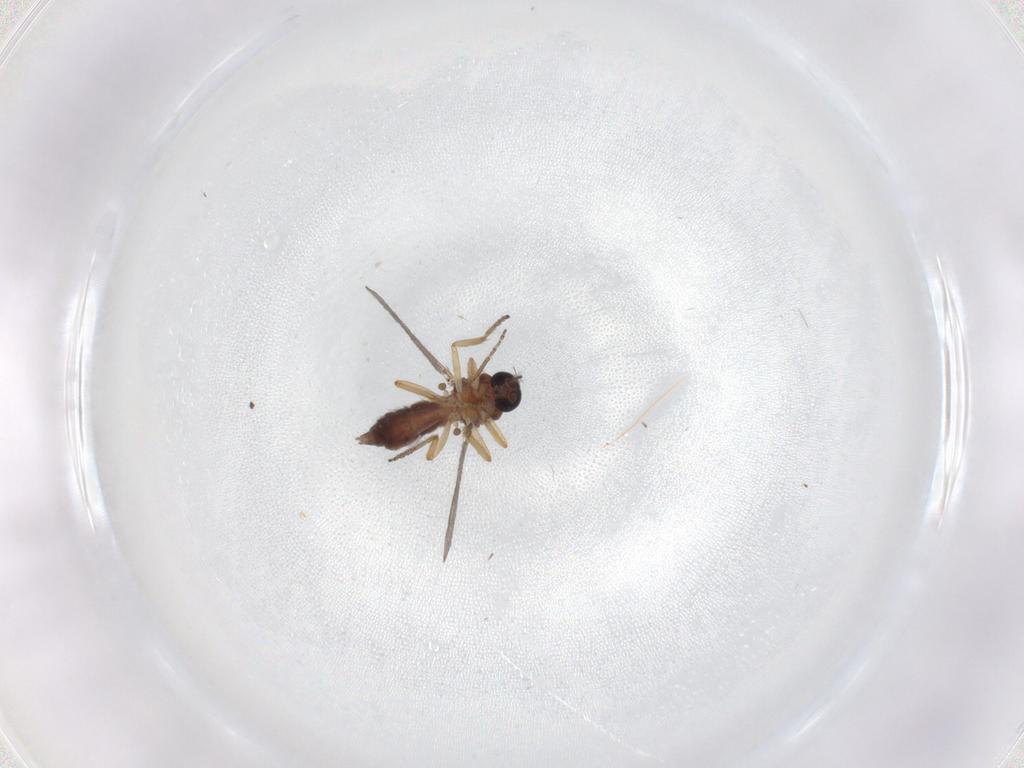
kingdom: Animalia
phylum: Arthropoda
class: Insecta
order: Diptera
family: Ceratopogonidae
